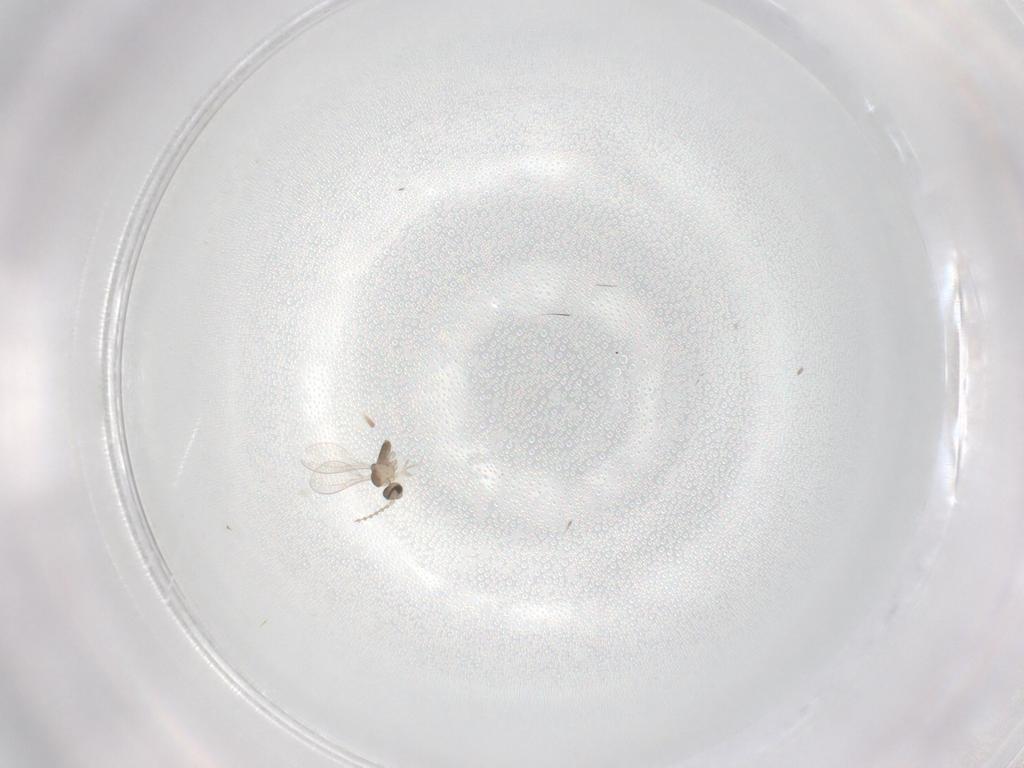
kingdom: Animalia
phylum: Arthropoda
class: Insecta
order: Diptera
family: Cecidomyiidae
